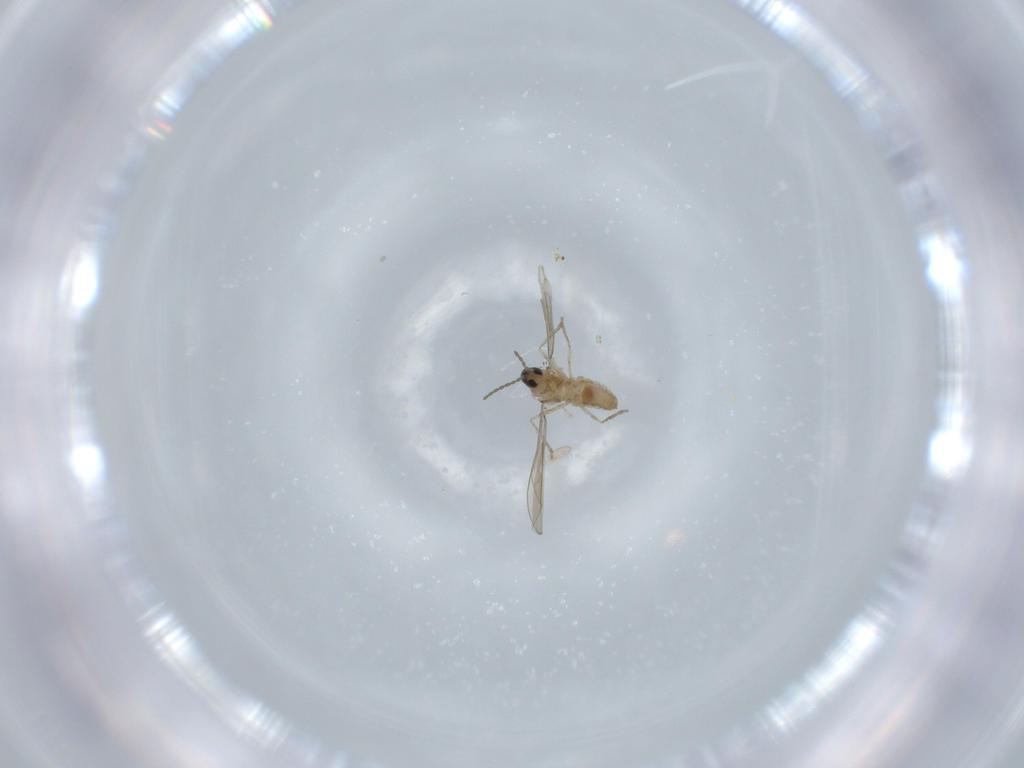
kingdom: Animalia
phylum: Arthropoda
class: Insecta
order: Diptera
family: Cecidomyiidae
